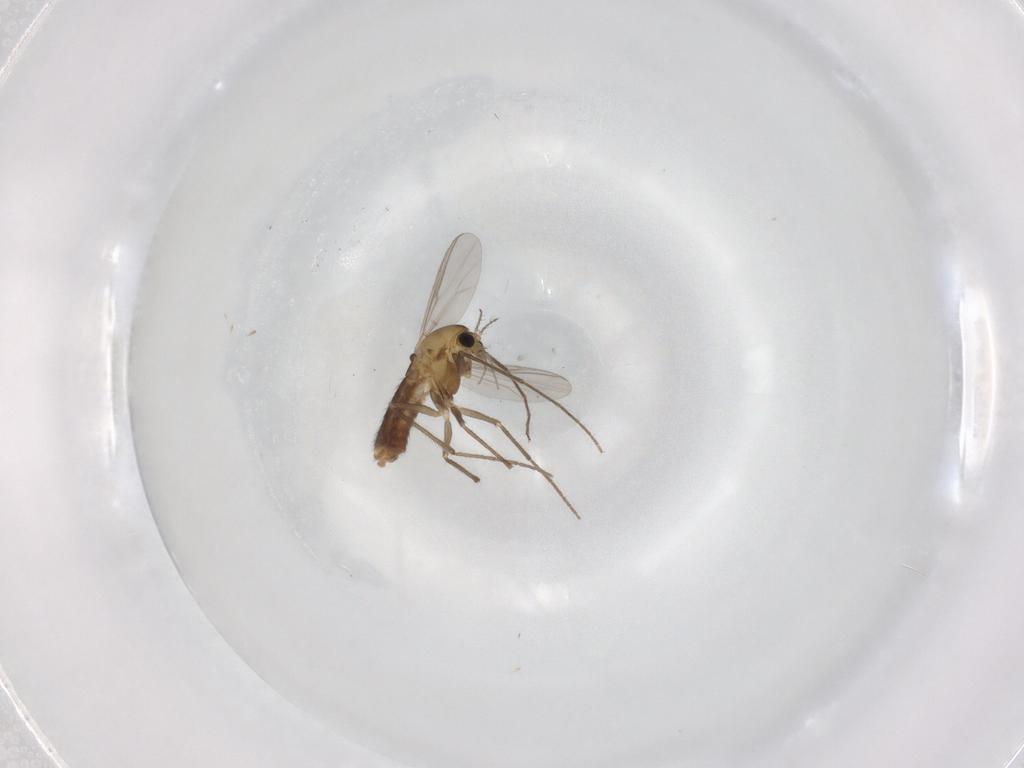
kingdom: Animalia
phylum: Arthropoda
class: Insecta
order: Diptera
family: Chironomidae
